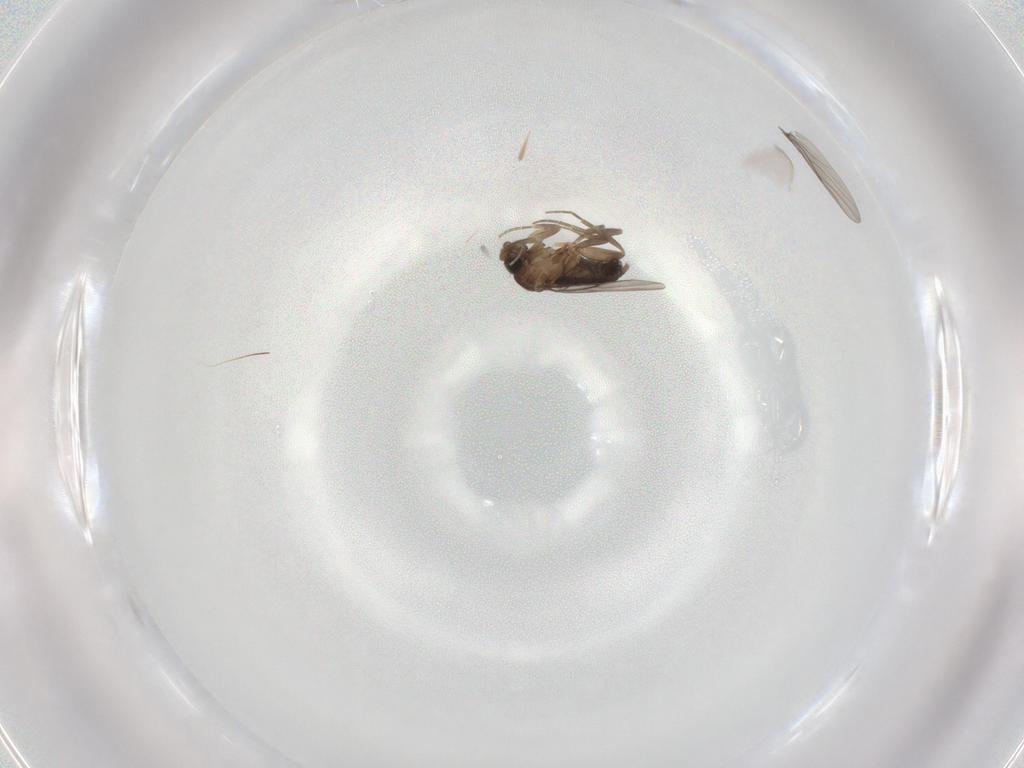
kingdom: Animalia
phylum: Arthropoda
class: Insecta
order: Diptera
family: Phoridae
